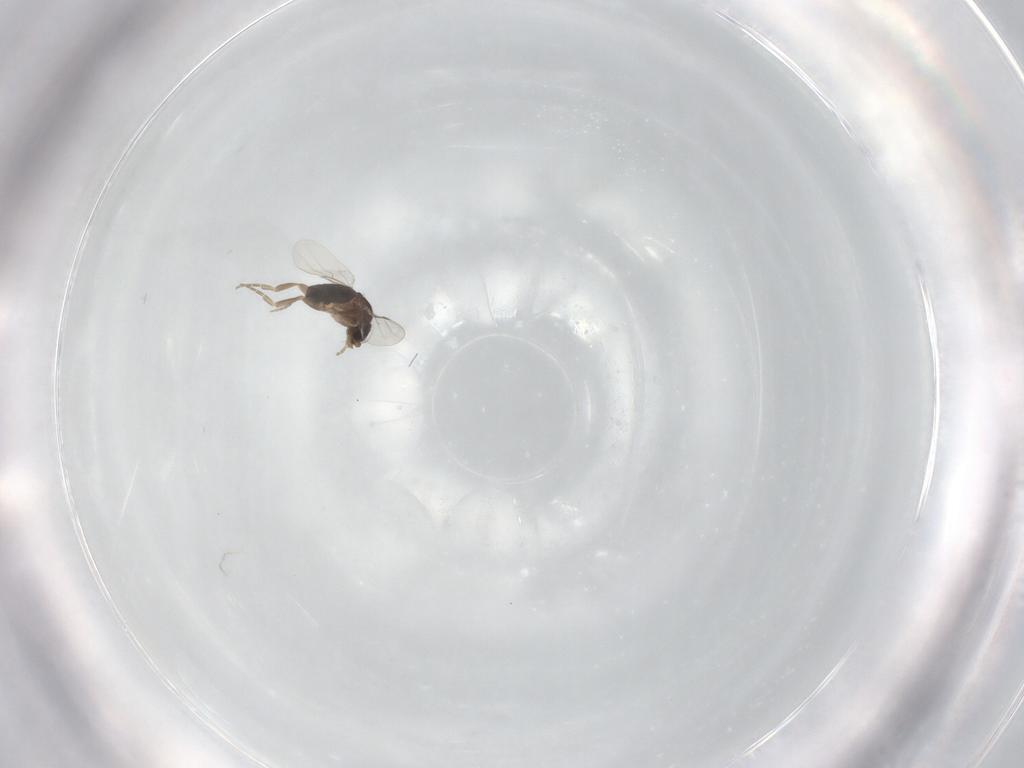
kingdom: Animalia
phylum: Arthropoda
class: Insecta
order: Diptera
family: Phoridae
